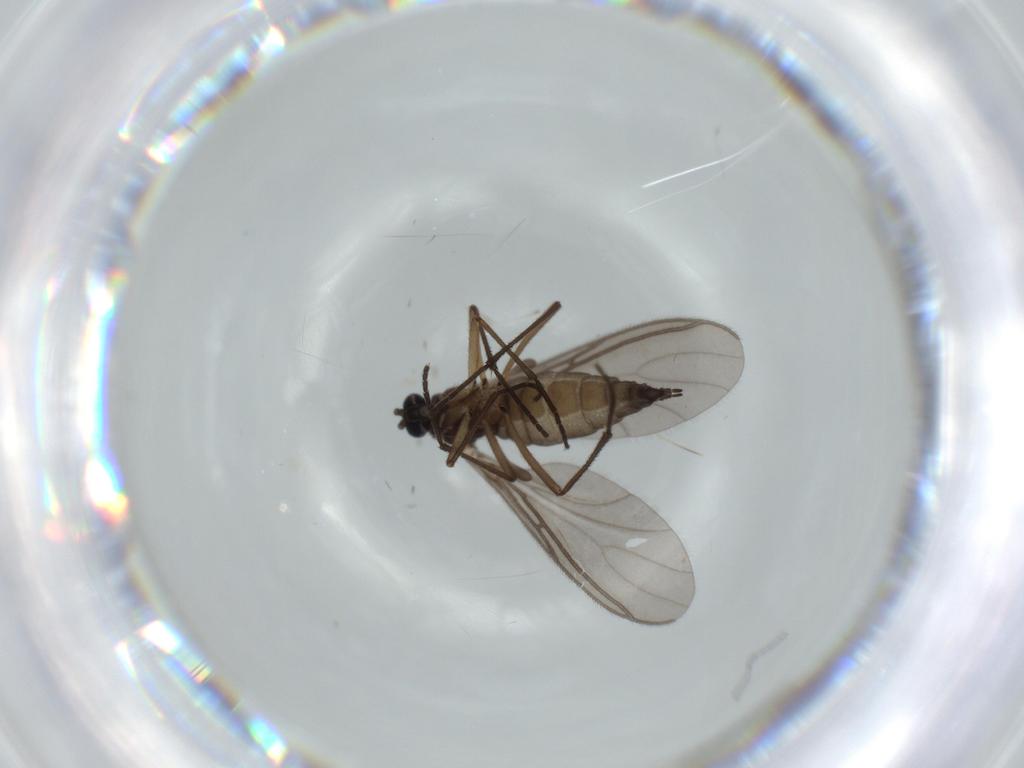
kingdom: Animalia
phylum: Arthropoda
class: Insecta
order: Diptera
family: Sciaridae
